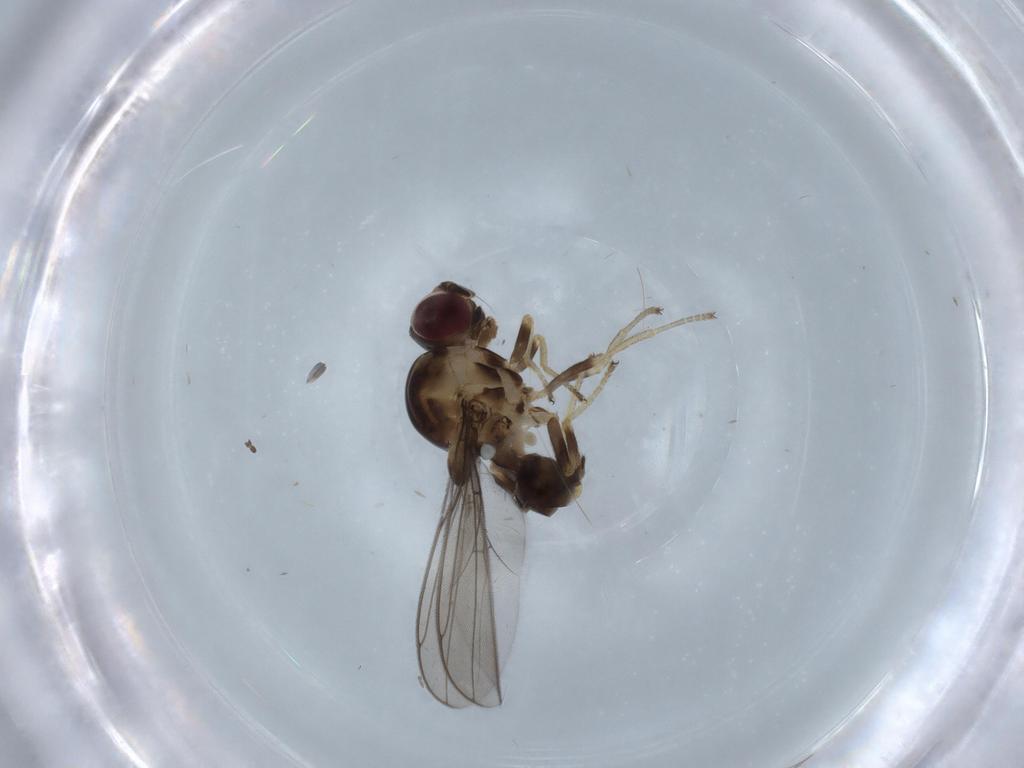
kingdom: Animalia
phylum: Arthropoda
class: Insecta
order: Diptera
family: Chloropidae
